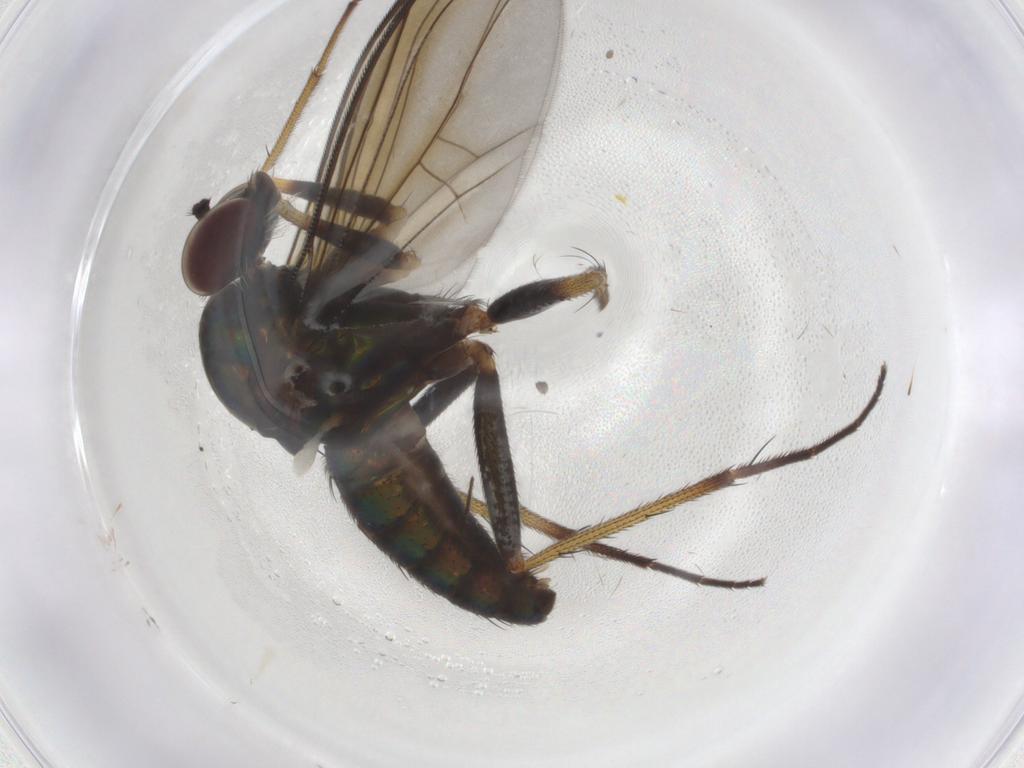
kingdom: Animalia
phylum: Arthropoda
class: Insecta
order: Diptera
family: Dolichopodidae
